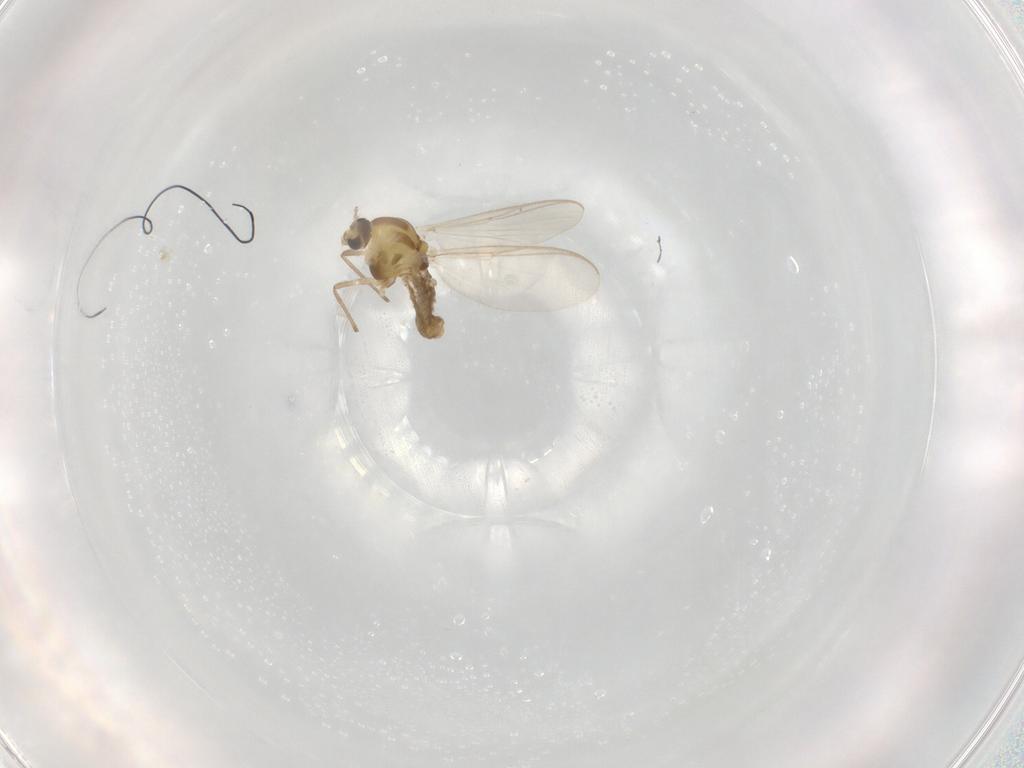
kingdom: Animalia
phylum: Arthropoda
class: Insecta
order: Diptera
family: Chironomidae
